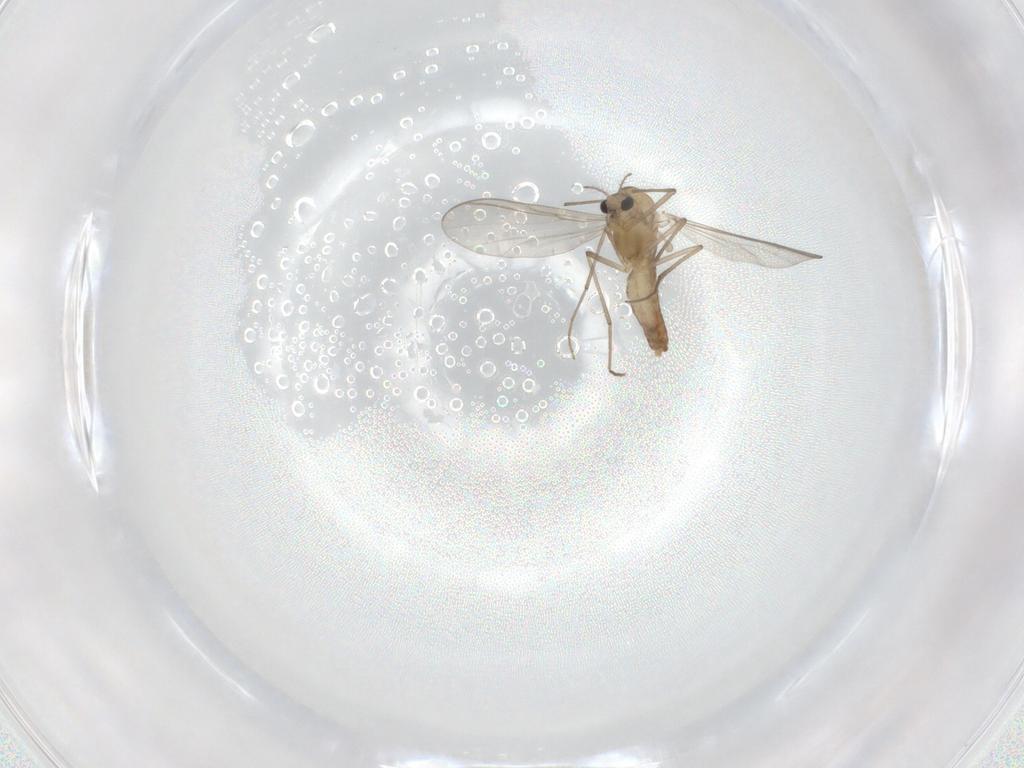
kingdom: Animalia
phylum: Arthropoda
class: Insecta
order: Diptera
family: Chironomidae
